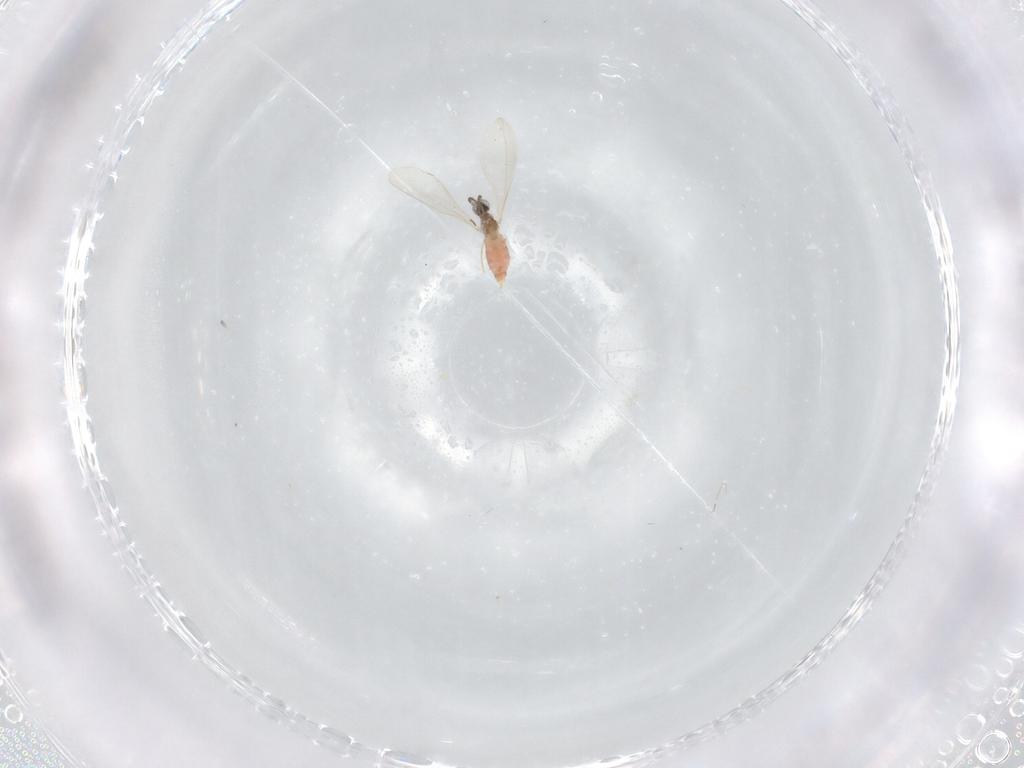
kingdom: Animalia
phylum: Arthropoda
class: Insecta
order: Diptera
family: Cecidomyiidae
